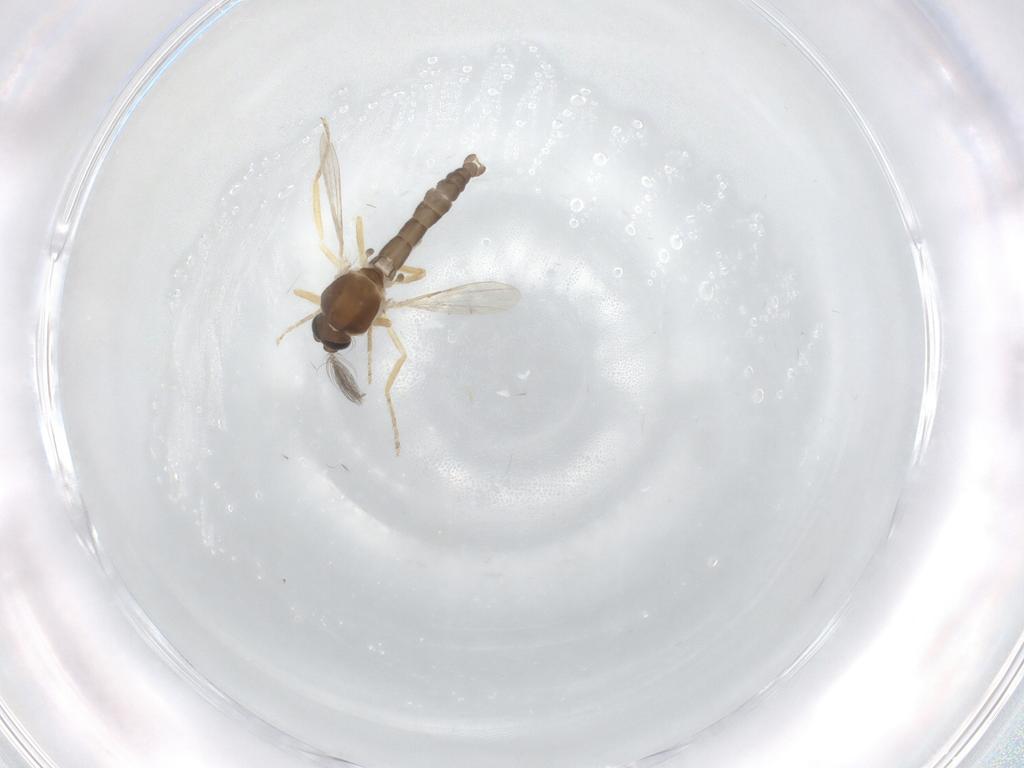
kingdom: Animalia
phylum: Arthropoda
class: Insecta
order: Diptera
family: Ceratopogonidae
